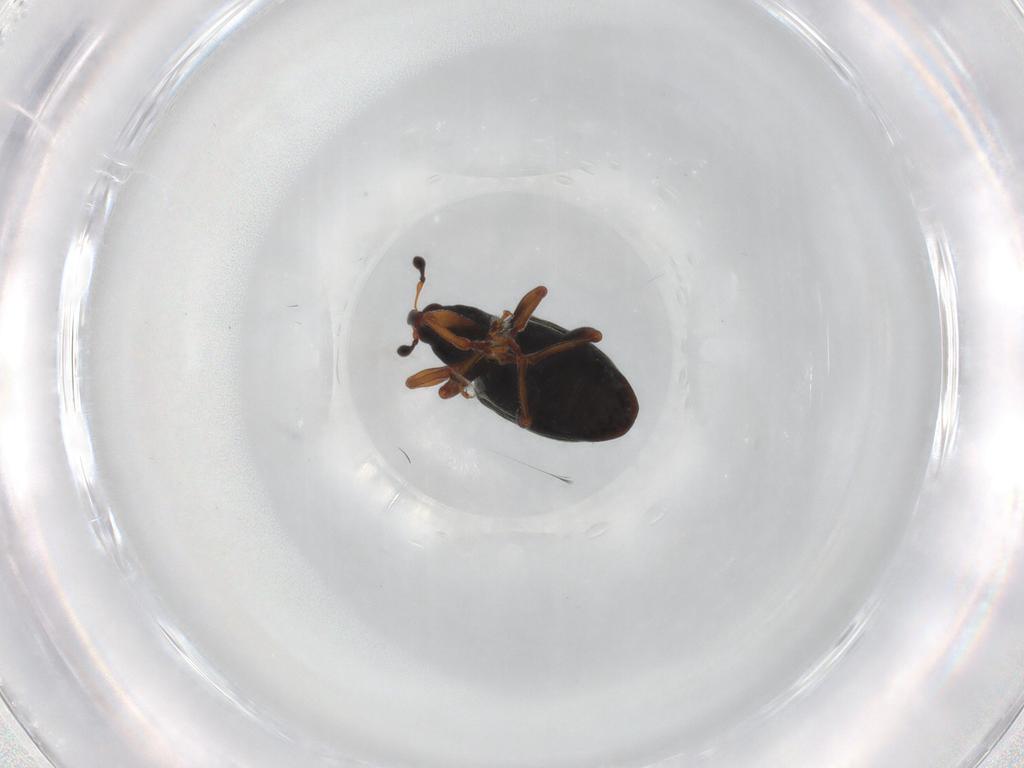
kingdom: Animalia
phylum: Arthropoda
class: Insecta
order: Coleoptera
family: Curculionidae
